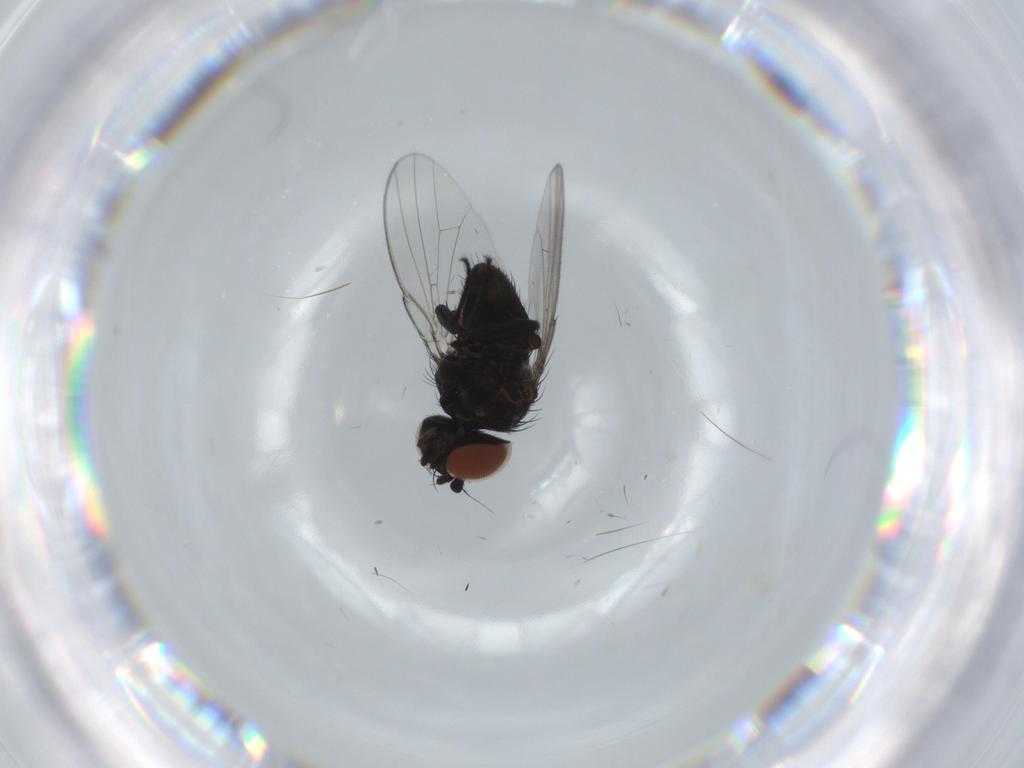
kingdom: Animalia
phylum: Arthropoda
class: Insecta
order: Diptera
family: Milichiidae
